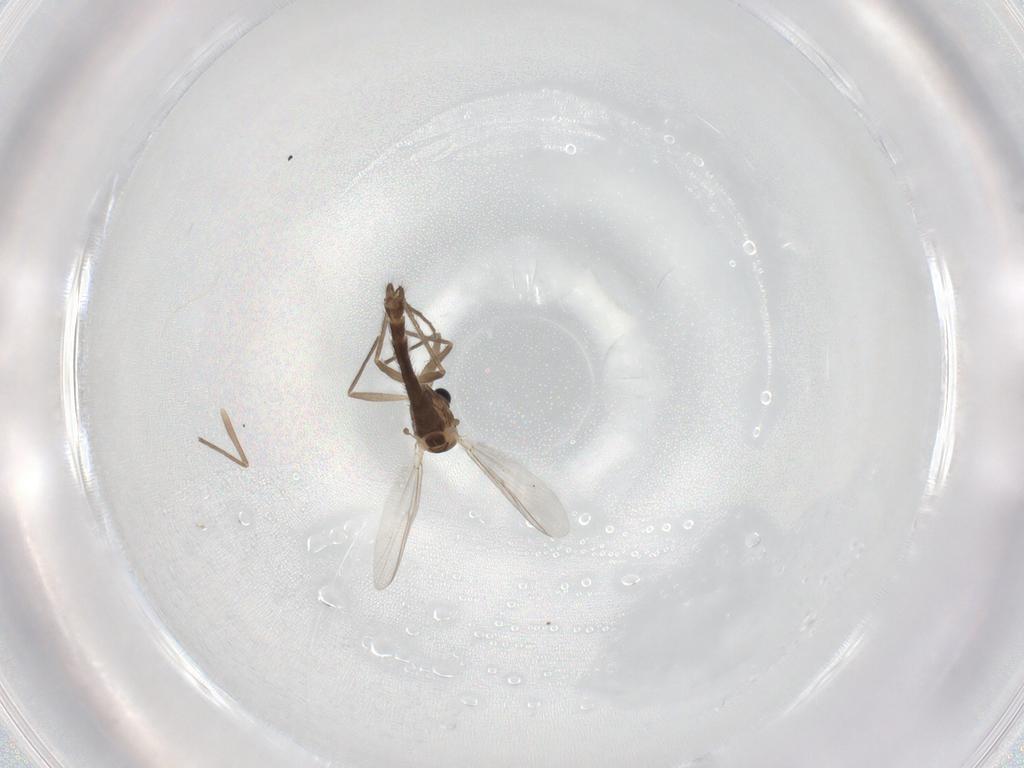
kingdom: Animalia
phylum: Arthropoda
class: Insecta
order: Diptera
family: Chironomidae
